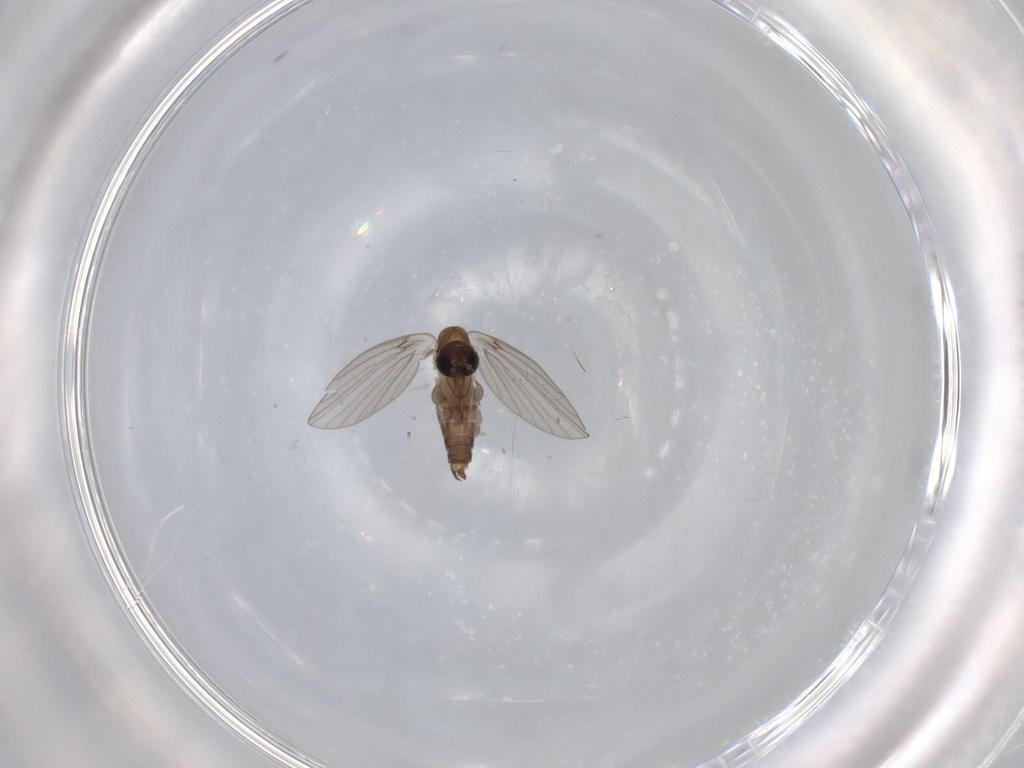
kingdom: Animalia
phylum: Arthropoda
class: Insecta
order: Diptera
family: Psychodidae
